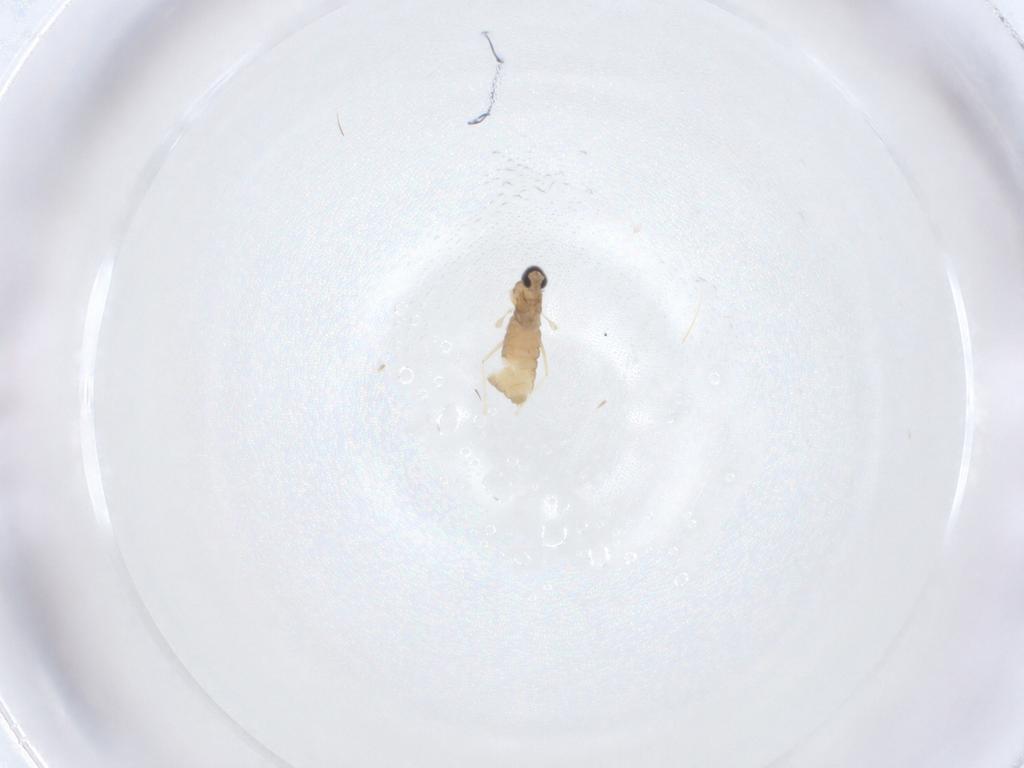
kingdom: Animalia
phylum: Arthropoda
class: Insecta
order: Diptera
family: Cecidomyiidae
